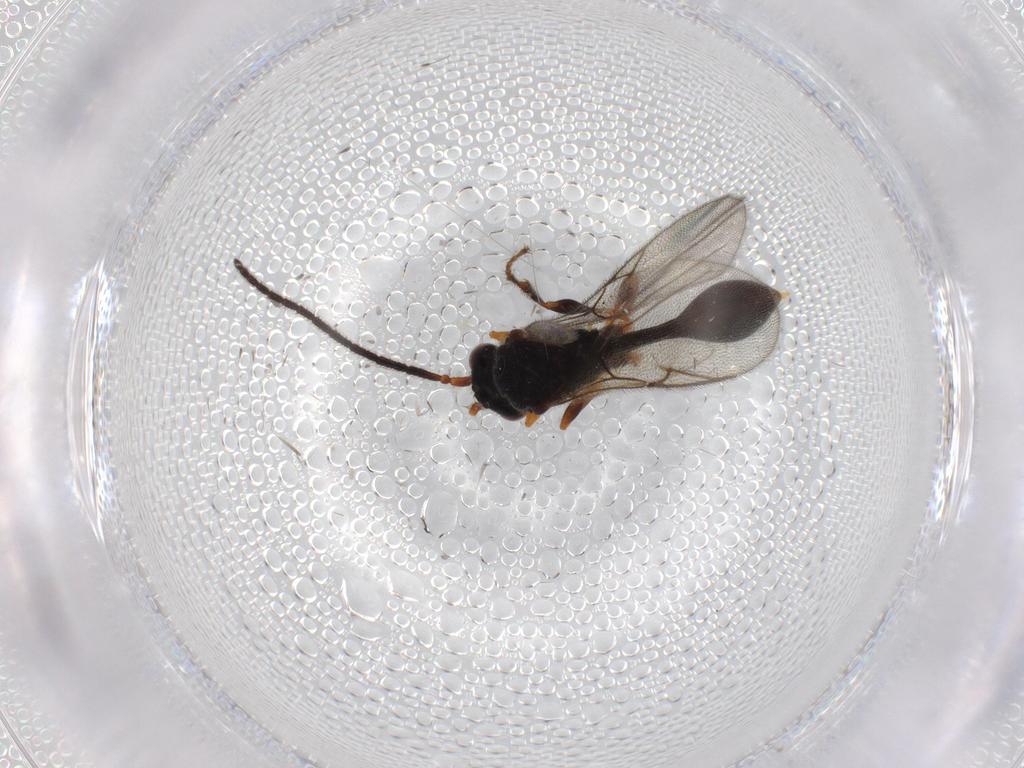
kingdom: Animalia
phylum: Arthropoda
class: Insecta
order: Hymenoptera
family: Diapriidae
